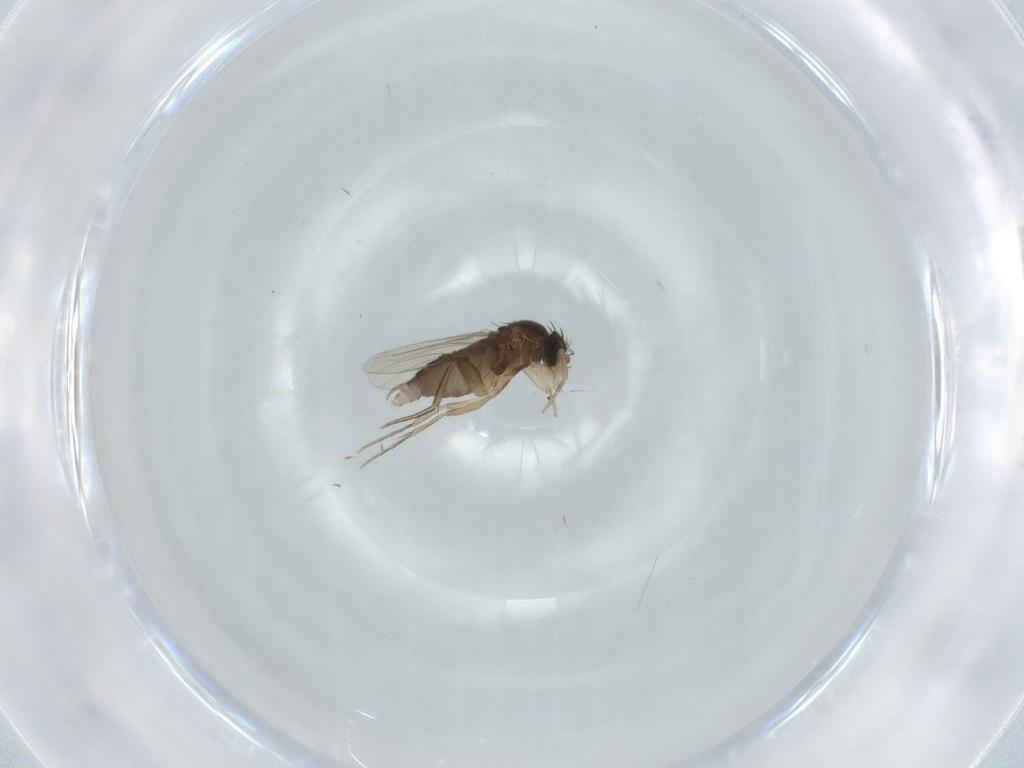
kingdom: Animalia
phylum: Arthropoda
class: Insecta
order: Diptera
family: Phoridae
